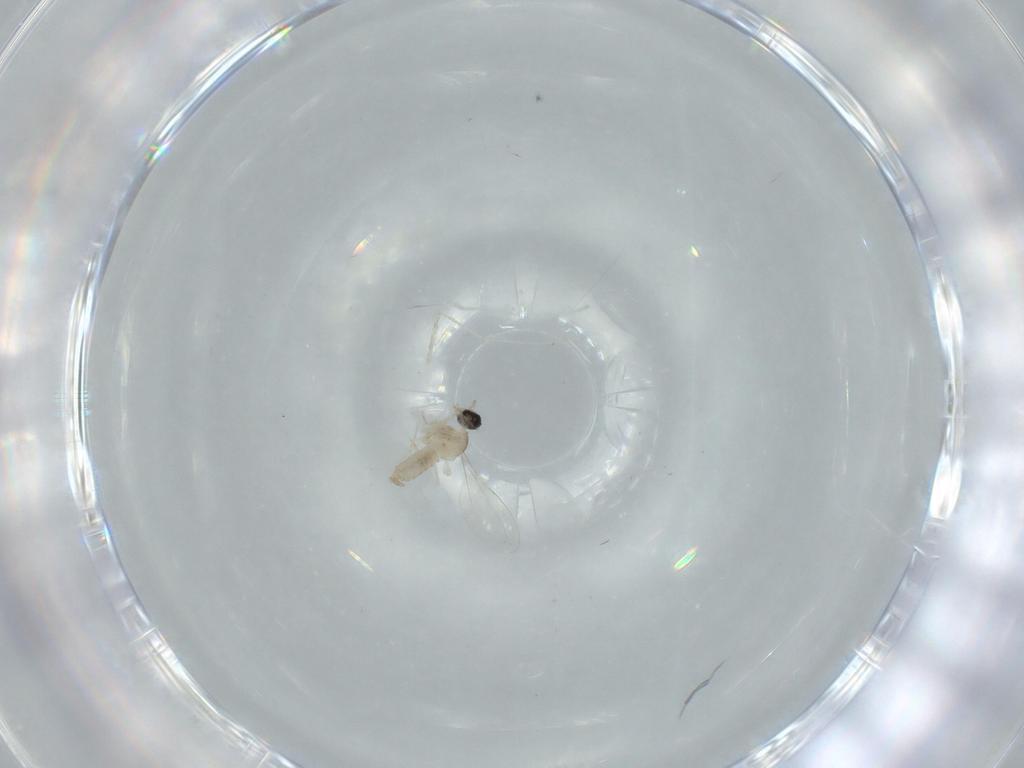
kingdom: Animalia
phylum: Arthropoda
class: Insecta
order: Diptera
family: Cecidomyiidae
